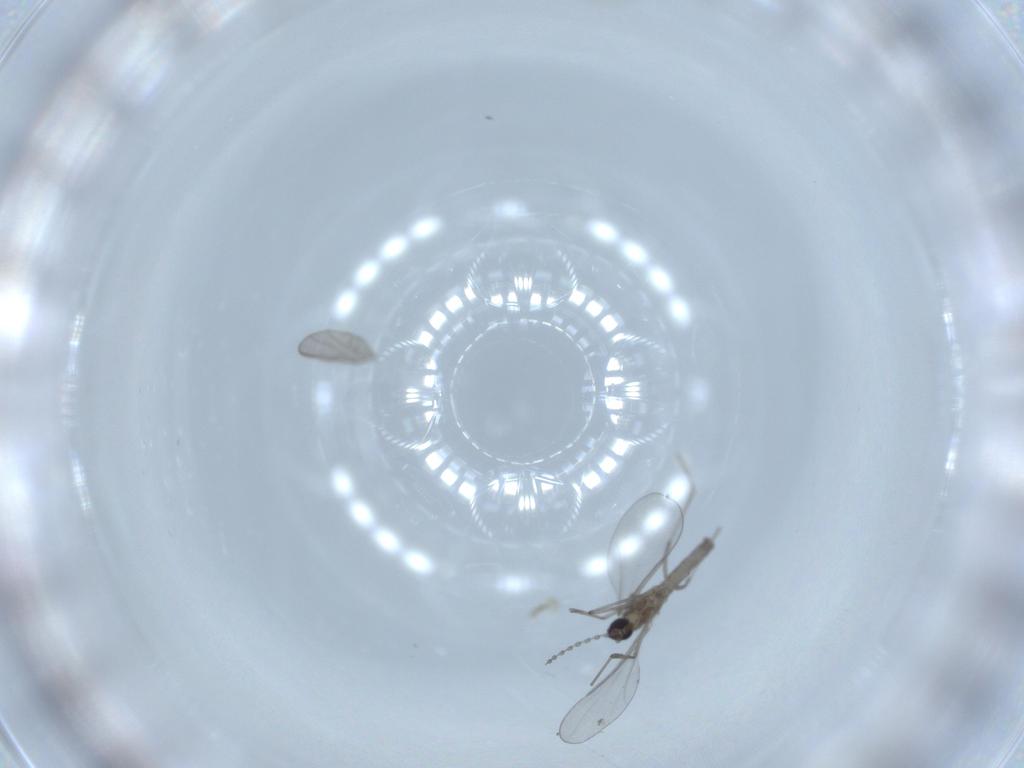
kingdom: Animalia
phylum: Arthropoda
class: Insecta
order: Diptera
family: Chironomidae
